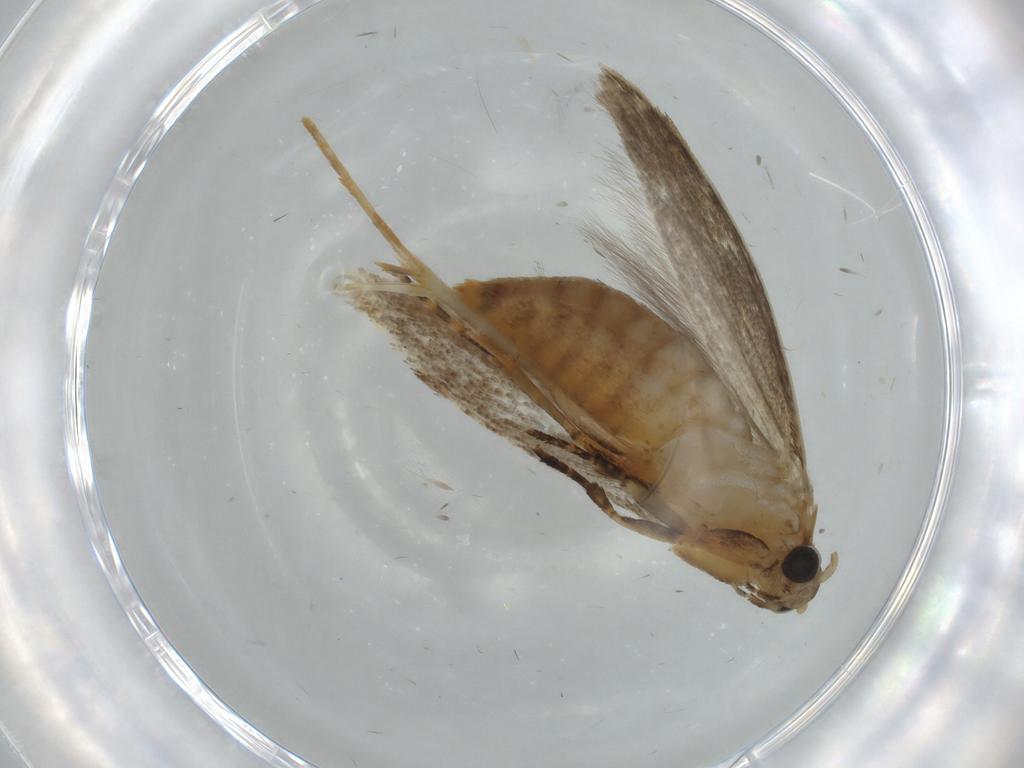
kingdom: Animalia
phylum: Arthropoda
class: Insecta
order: Lepidoptera
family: Tineidae
